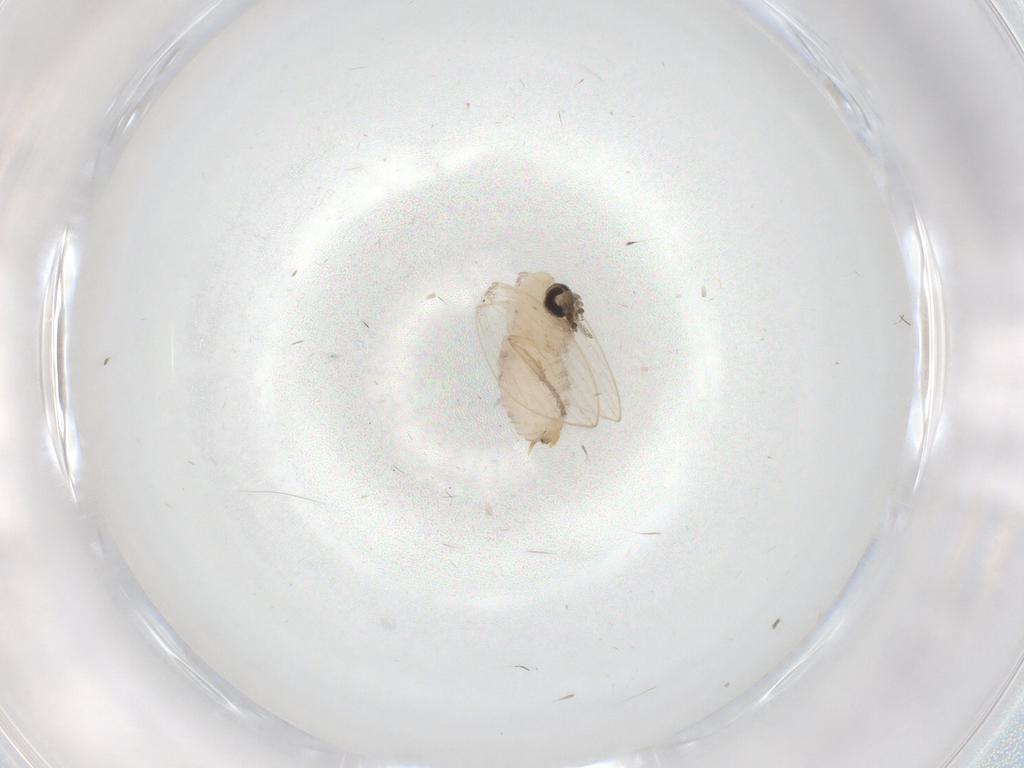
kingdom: Animalia
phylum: Arthropoda
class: Insecta
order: Diptera
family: Psychodidae
